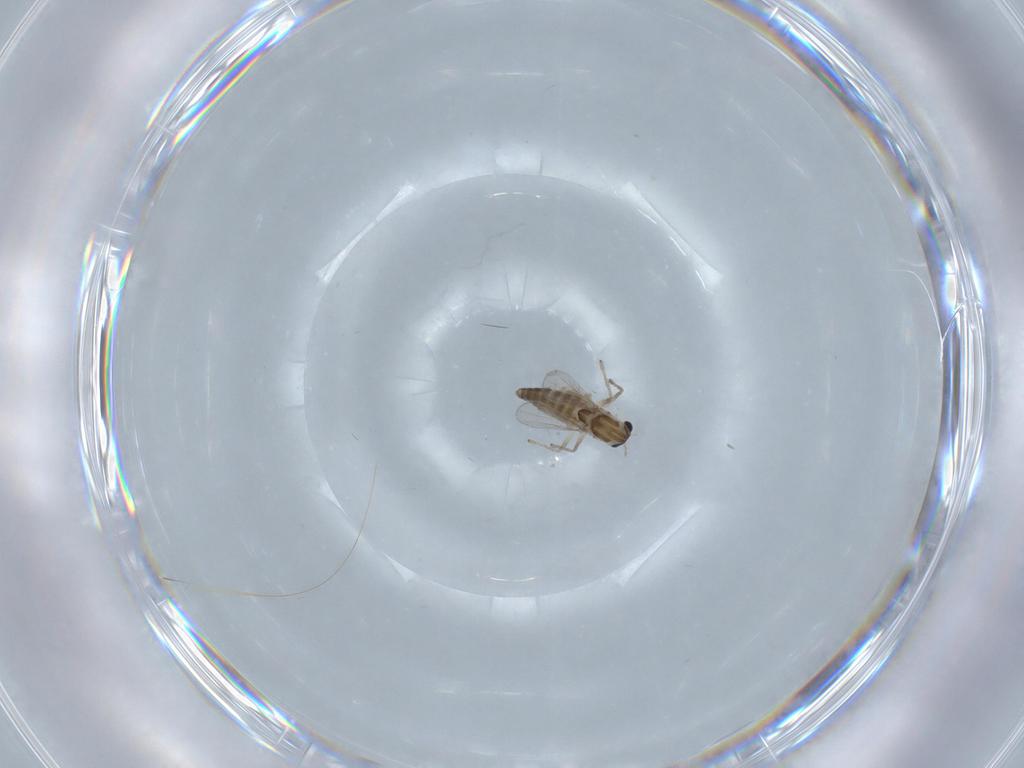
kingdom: Animalia
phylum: Arthropoda
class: Insecta
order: Diptera
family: Chironomidae
